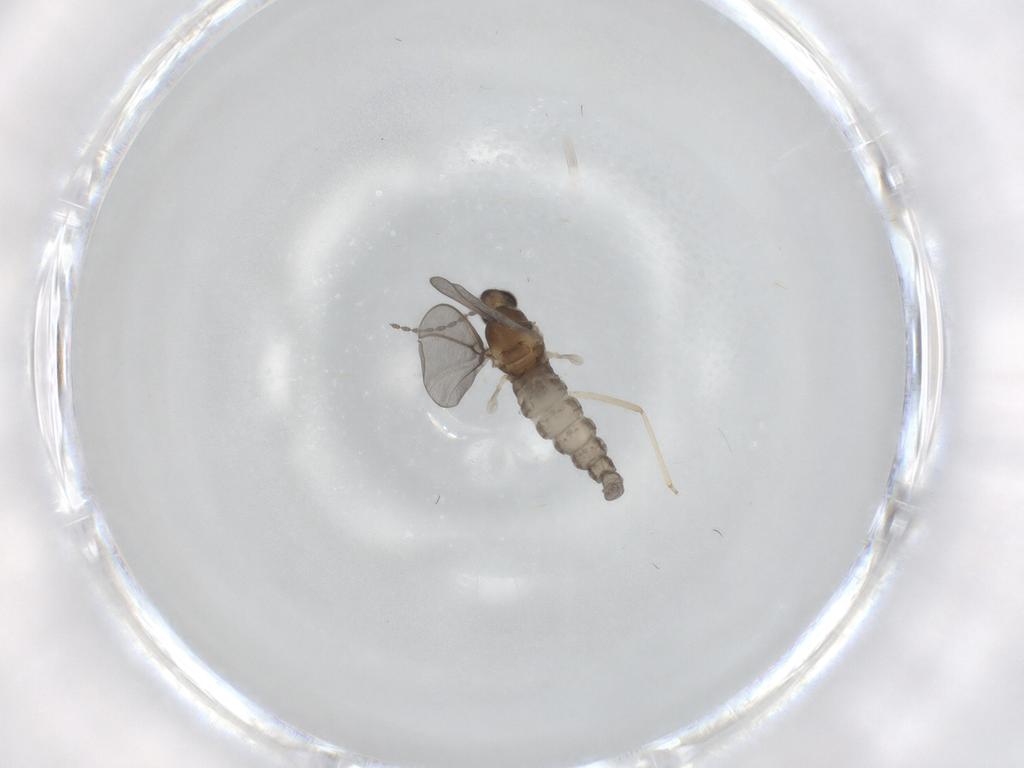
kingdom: Animalia
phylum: Arthropoda
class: Insecta
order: Diptera
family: Cecidomyiidae
